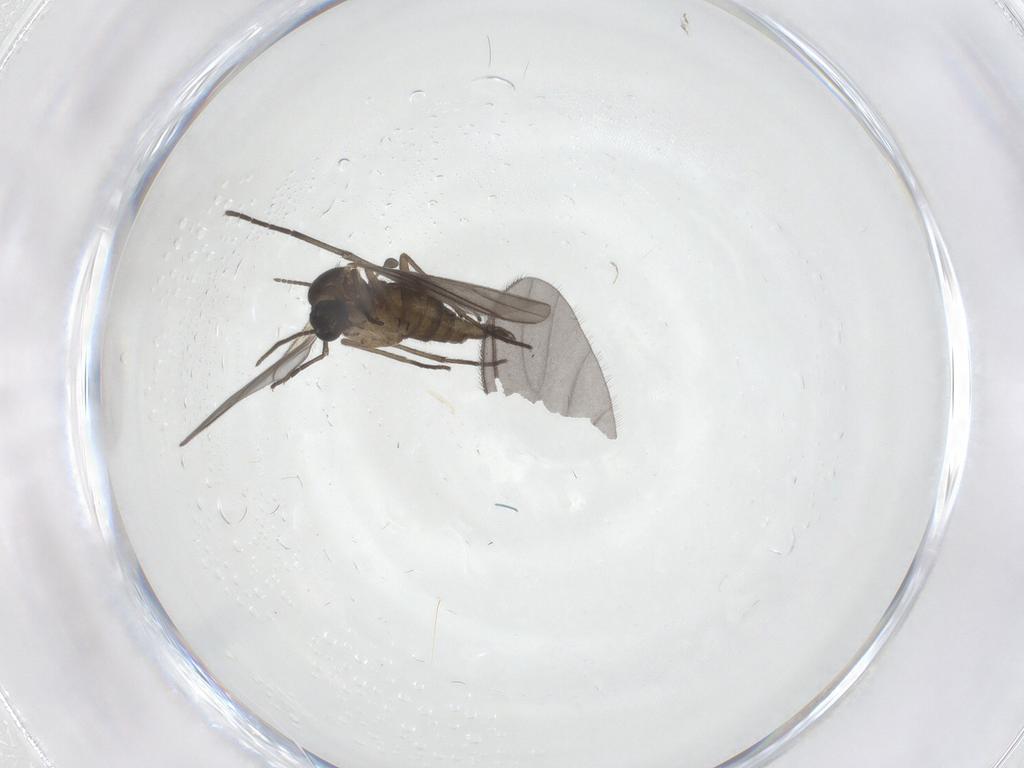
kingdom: Animalia
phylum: Arthropoda
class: Insecta
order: Diptera
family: Sciaridae
